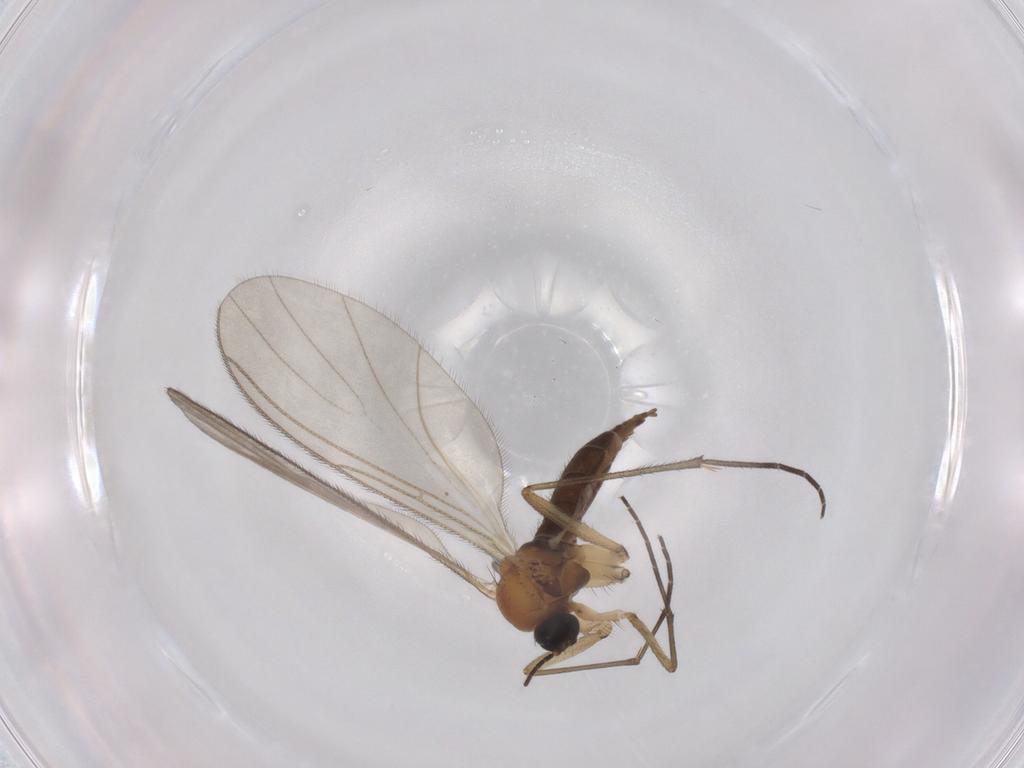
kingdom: Animalia
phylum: Arthropoda
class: Insecta
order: Diptera
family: Sciaridae
